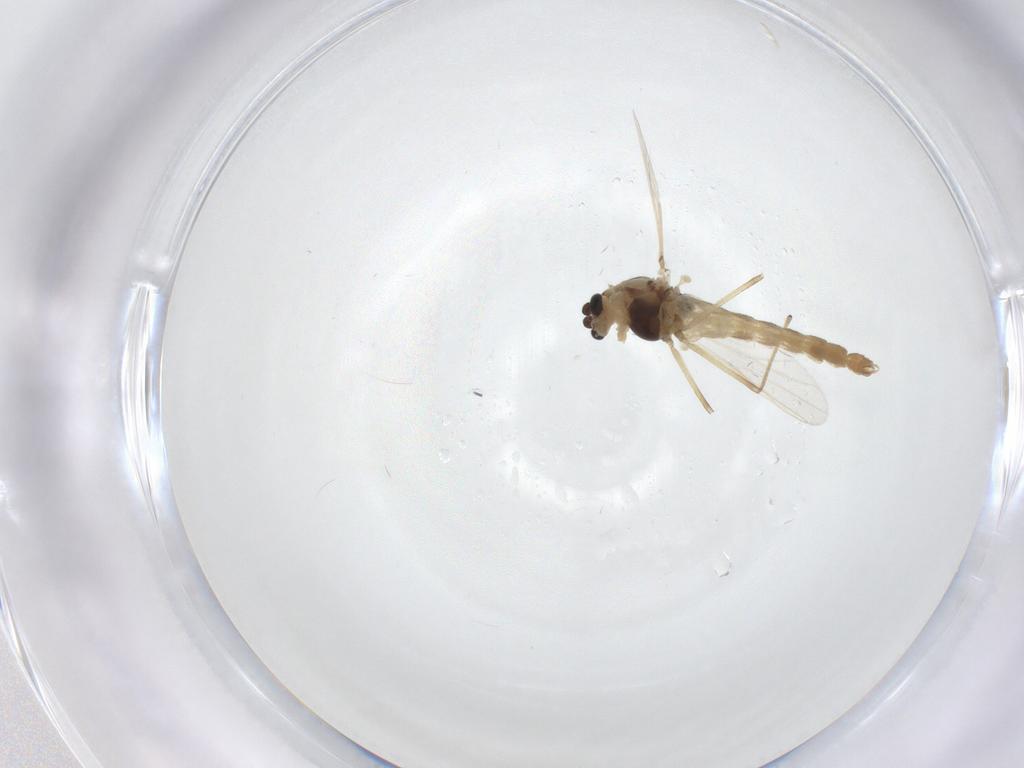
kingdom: Animalia
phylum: Arthropoda
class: Insecta
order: Diptera
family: Chironomidae
